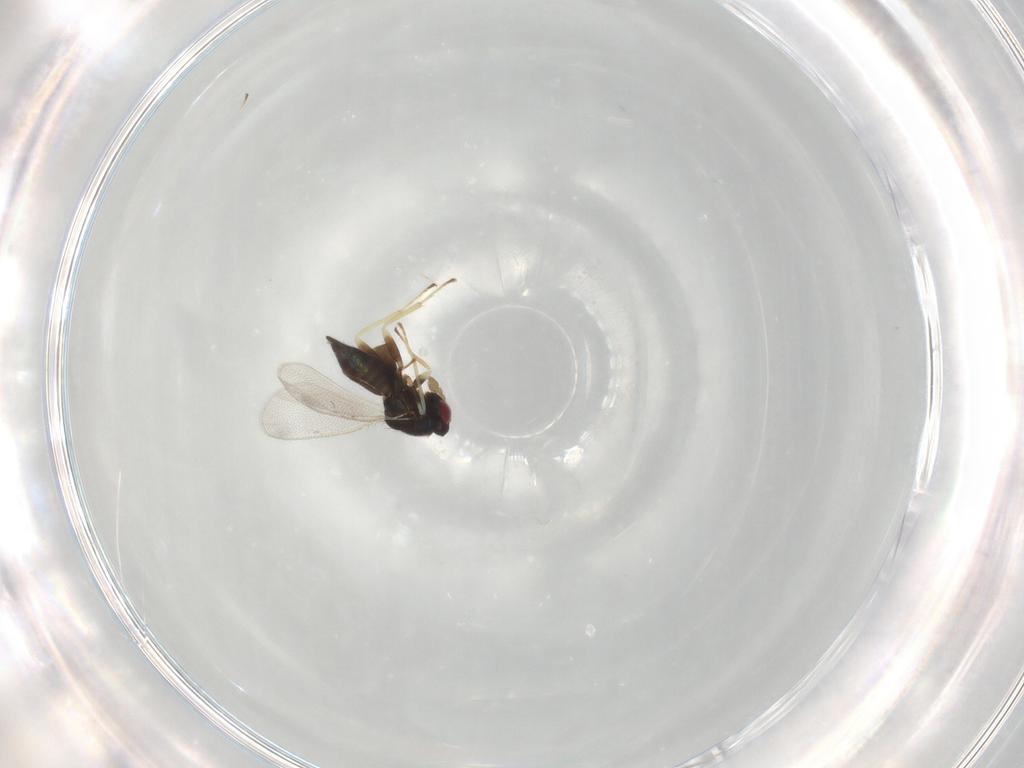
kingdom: Animalia
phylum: Arthropoda
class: Insecta
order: Hymenoptera
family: Eulophidae
